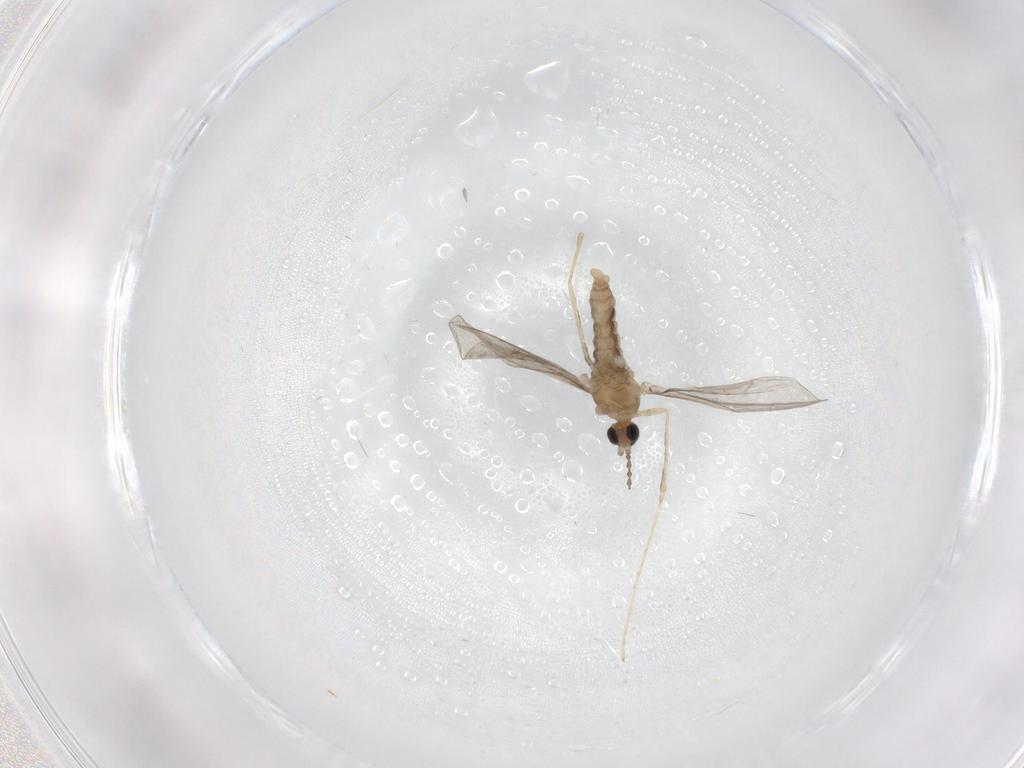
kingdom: Animalia
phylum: Arthropoda
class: Insecta
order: Diptera
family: Cecidomyiidae
